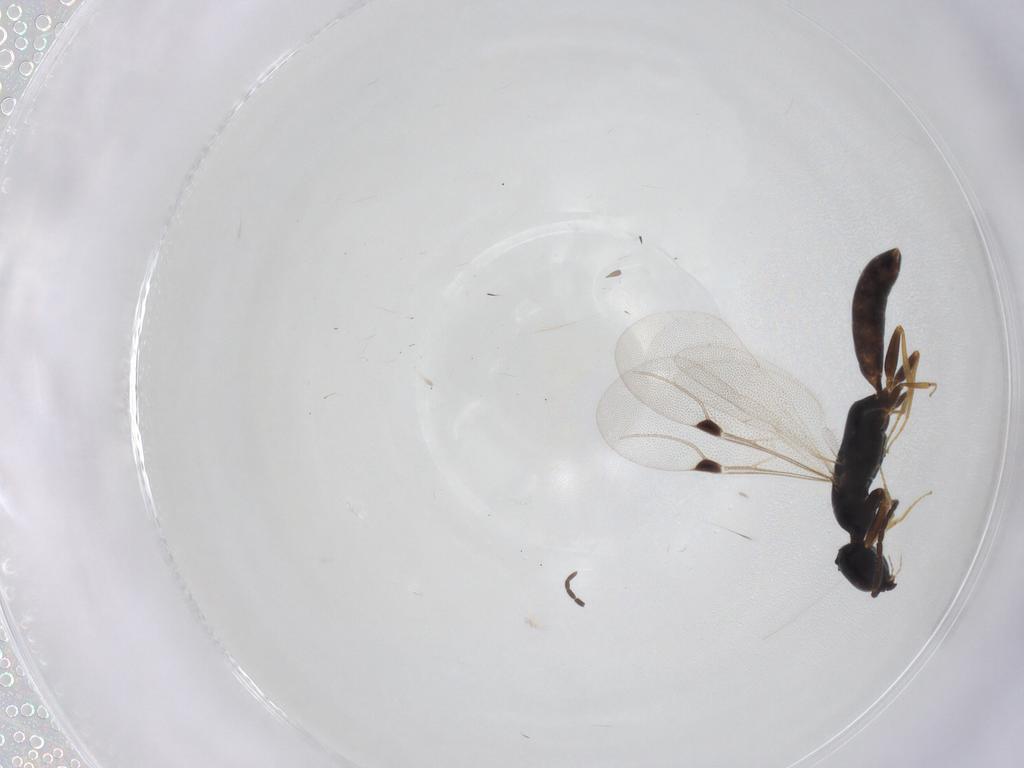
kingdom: Animalia
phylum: Arthropoda
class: Insecta
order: Hymenoptera
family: Bethylidae
